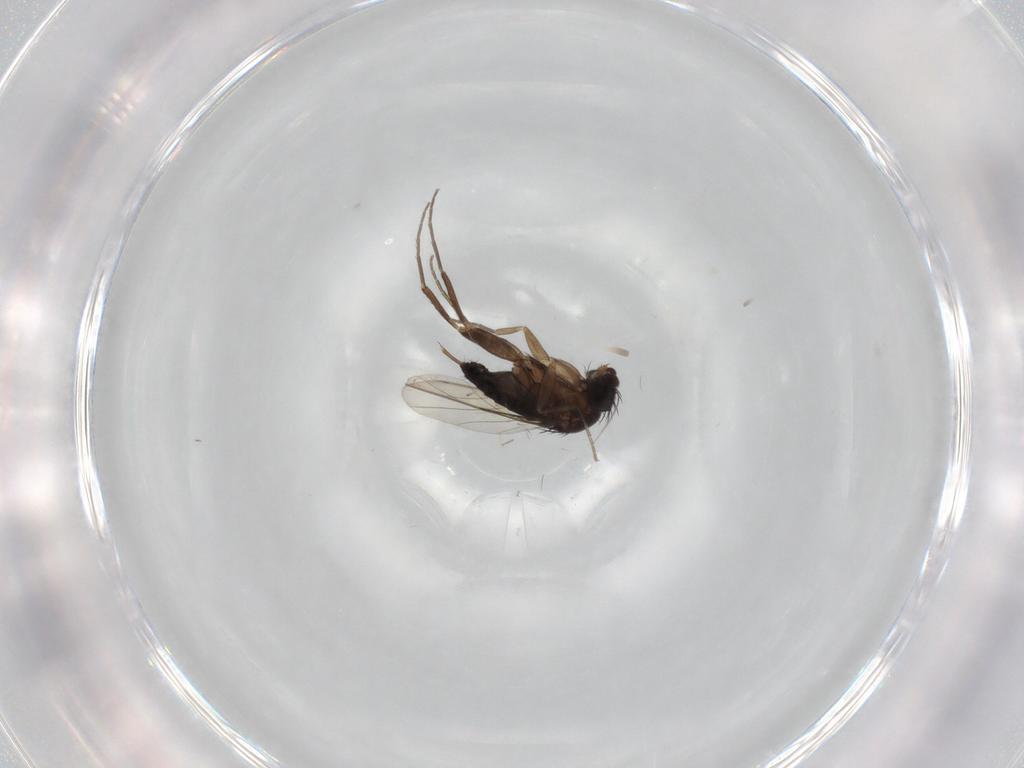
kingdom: Animalia
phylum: Arthropoda
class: Insecta
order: Diptera
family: Phoridae
